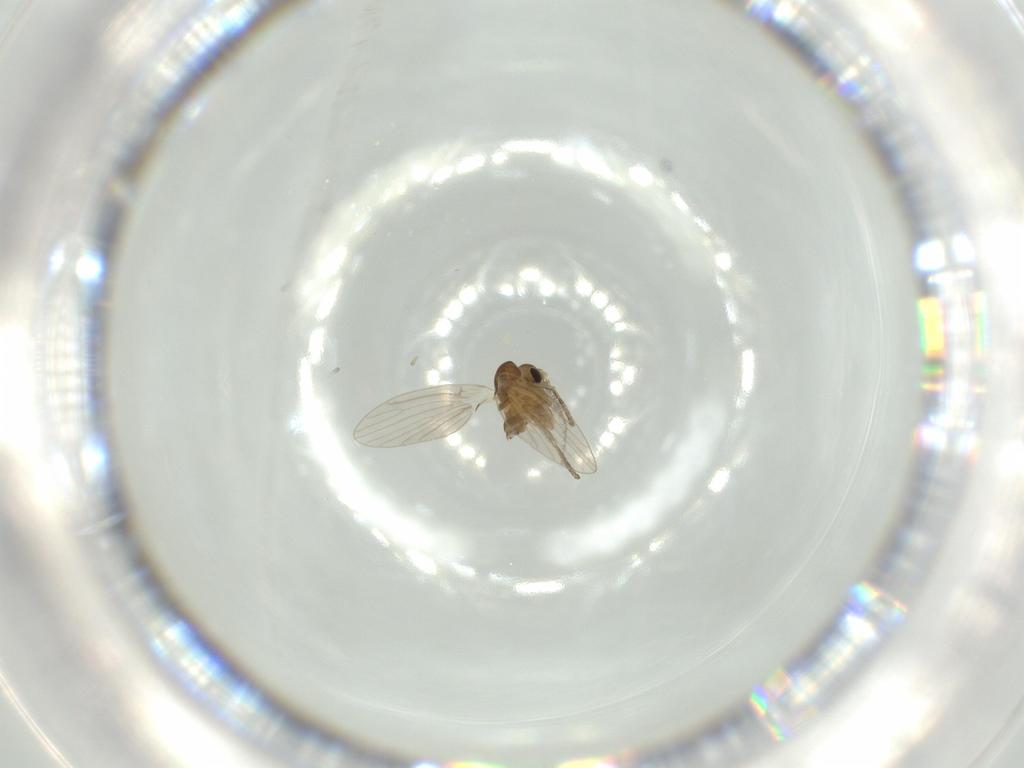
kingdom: Animalia
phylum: Arthropoda
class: Insecta
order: Diptera
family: Psychodidae
